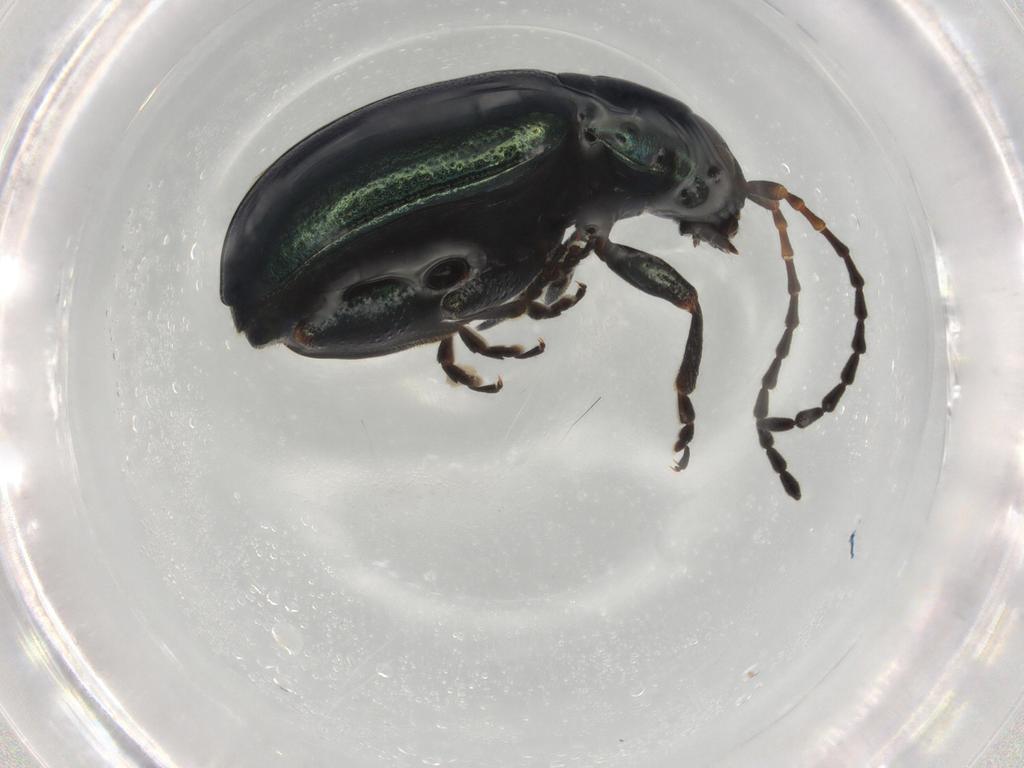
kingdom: Animalia
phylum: Arthropoda
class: Insecta
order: Coleoptera
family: Chrysomelidae
